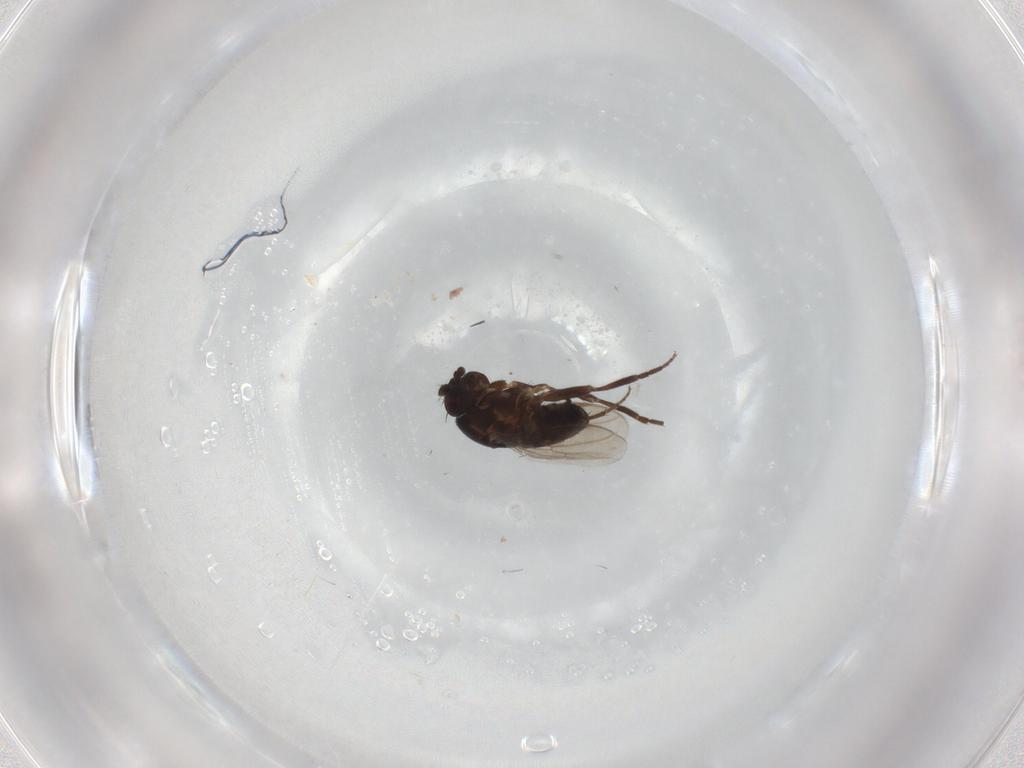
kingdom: Animalia
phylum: Arthropoda
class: Insecta
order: Diptera
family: Sphaeroceridae
